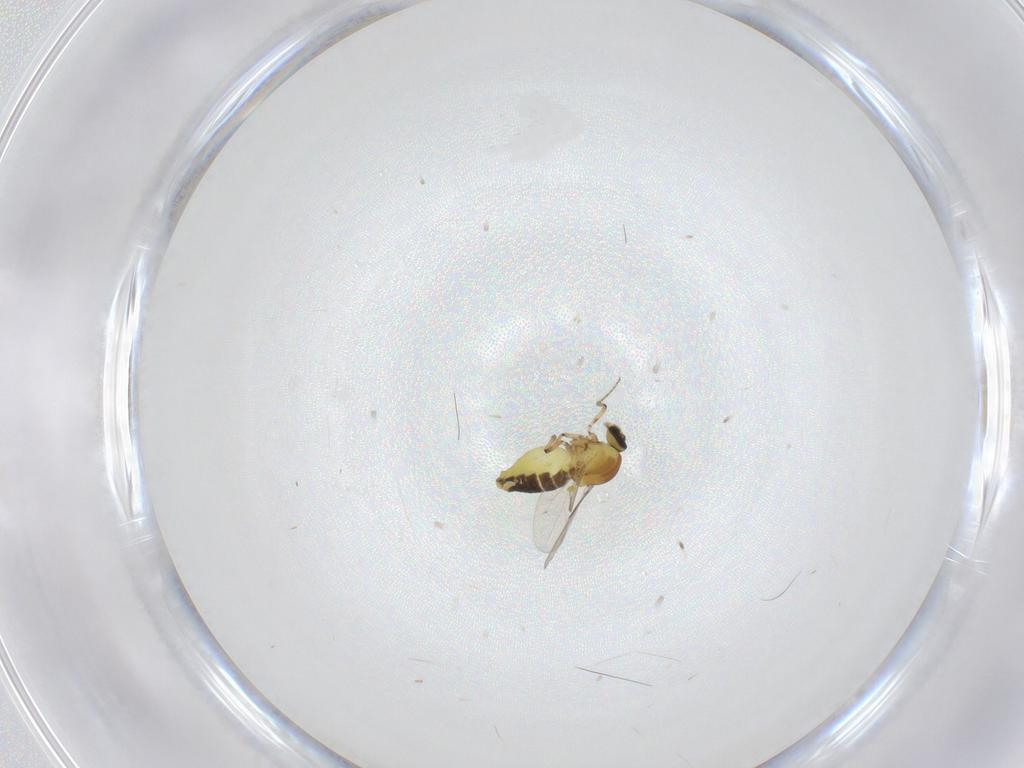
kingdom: Animalia
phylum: Arthropoda
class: Insecta
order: Diptera
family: Ceratopogonidae
